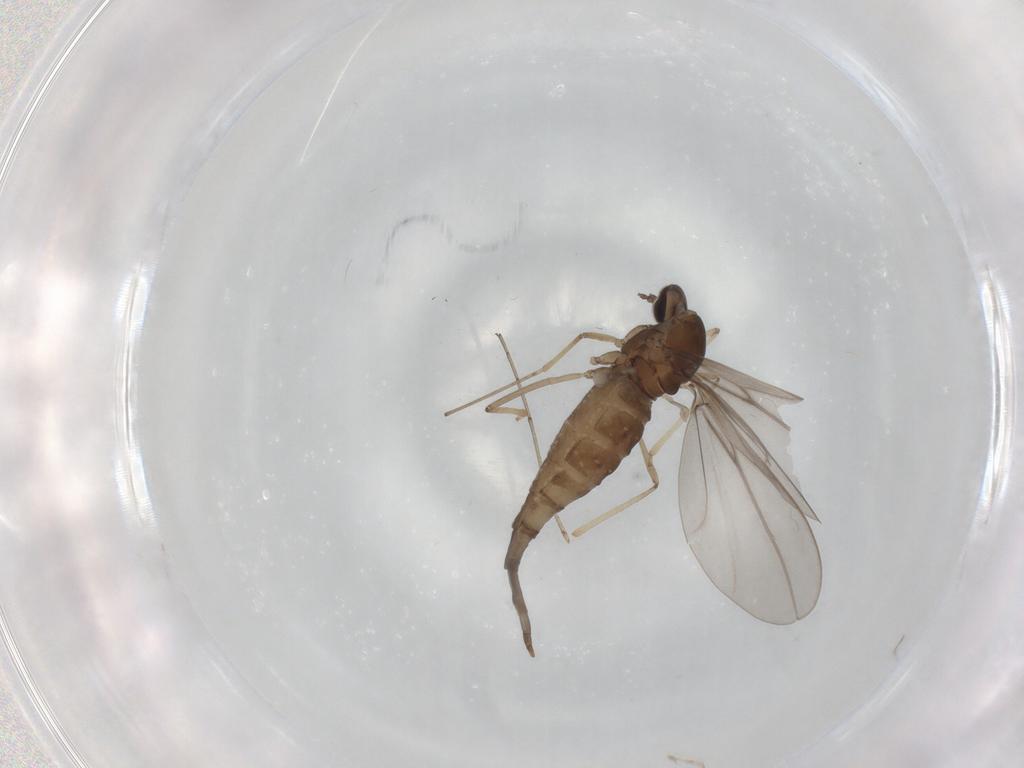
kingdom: Animalia
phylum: Arthropoda
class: Insecta
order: Diptera
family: Cecidomyiidae
